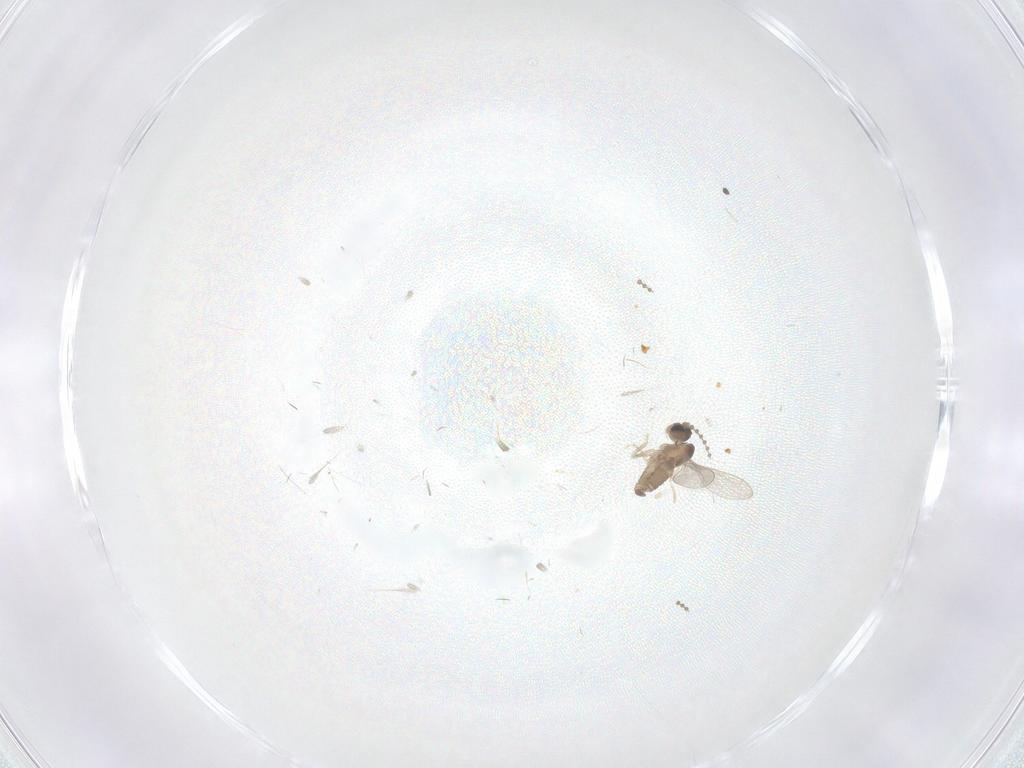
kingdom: Animalia
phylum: Arthropoda
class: Insecta
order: Diptera
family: Cecidomyiidae
